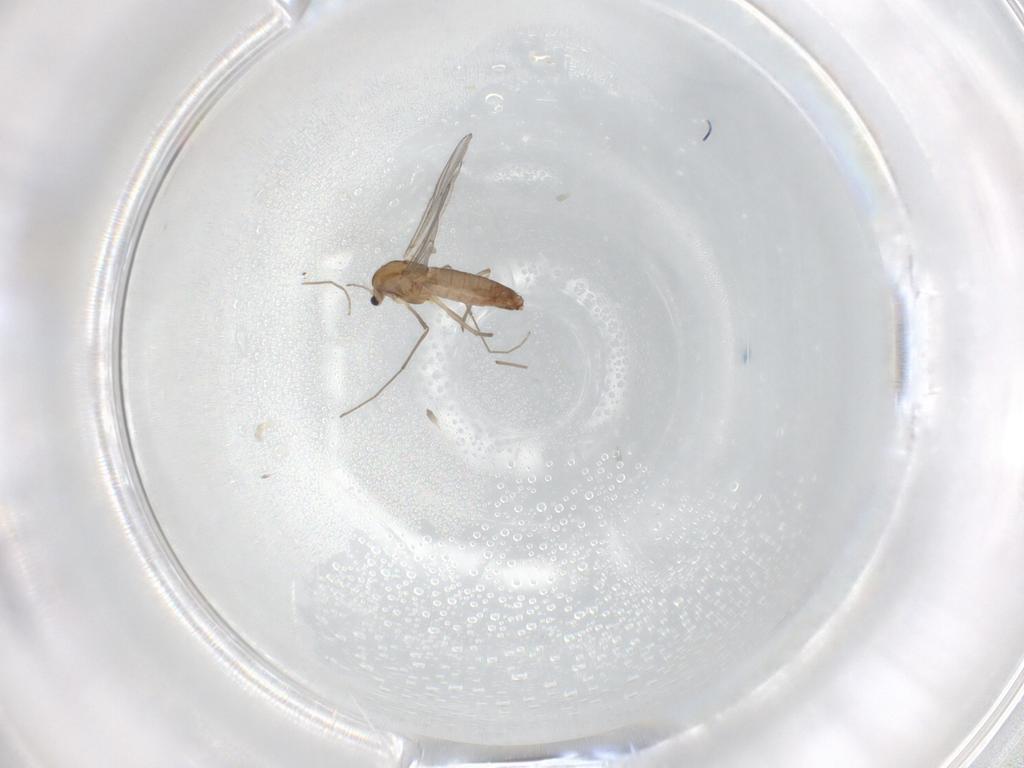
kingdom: Animalia
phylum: Arthropoda
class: Insecta
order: Diptera
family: Chironomidae
